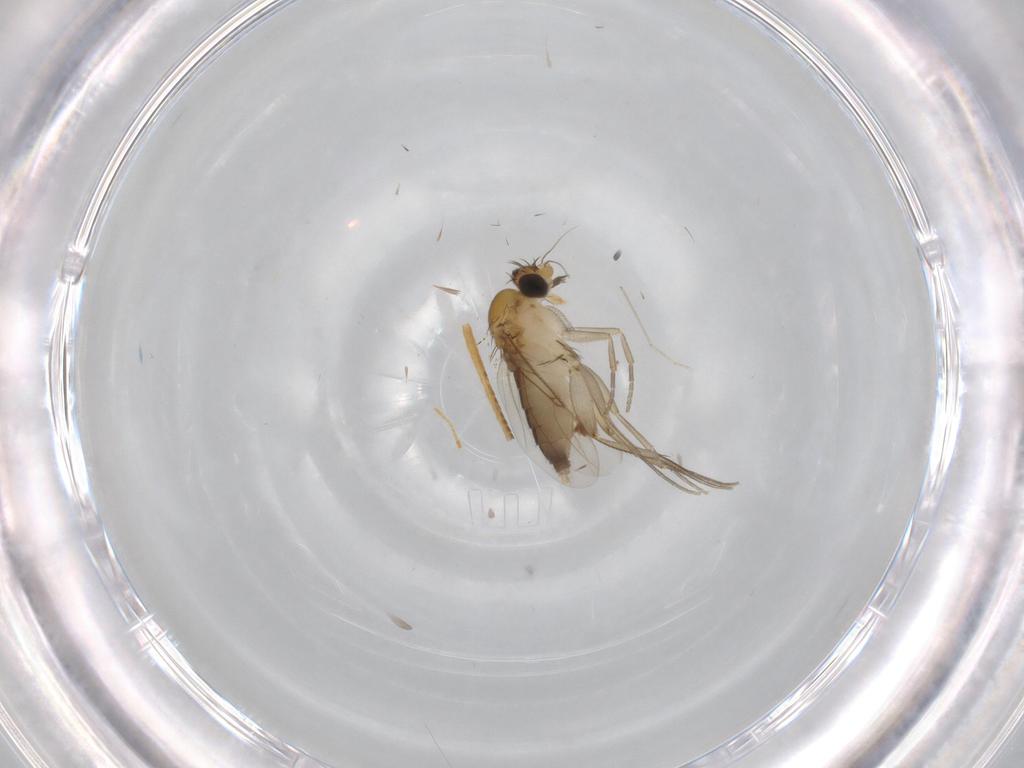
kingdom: Animalia
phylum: Arthropoda
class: Insecta
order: Diptera
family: Phoridae
